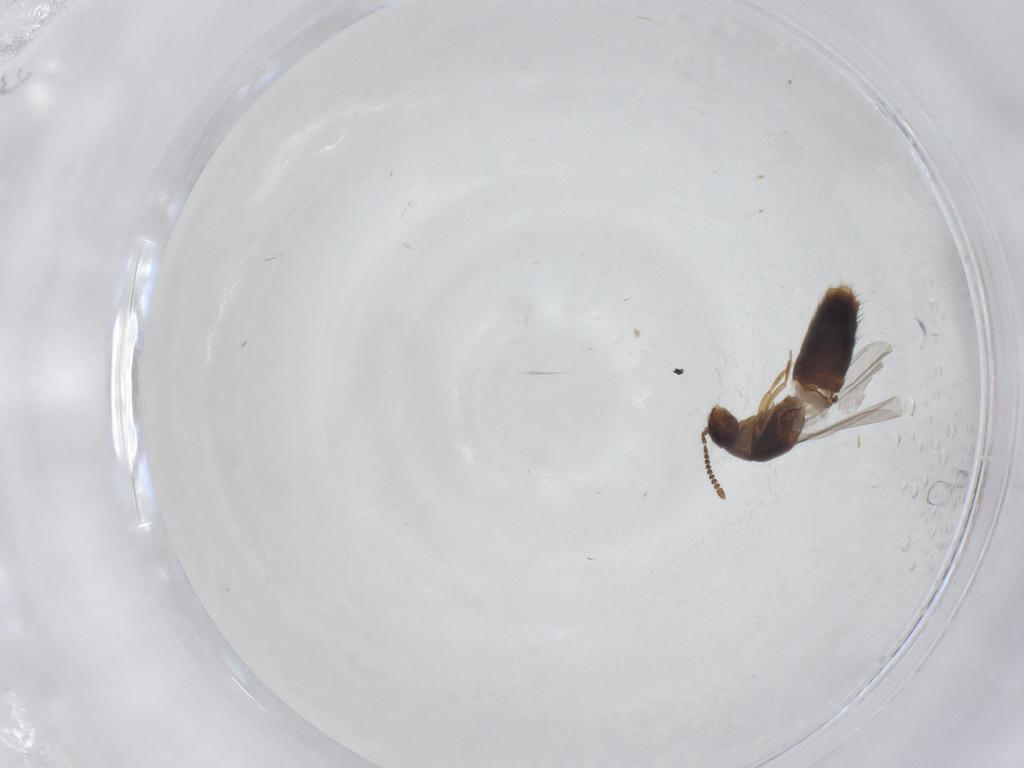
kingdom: Animalia
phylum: Arthropoda
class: Insecta
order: Coleoptera
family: Staphylinidae
